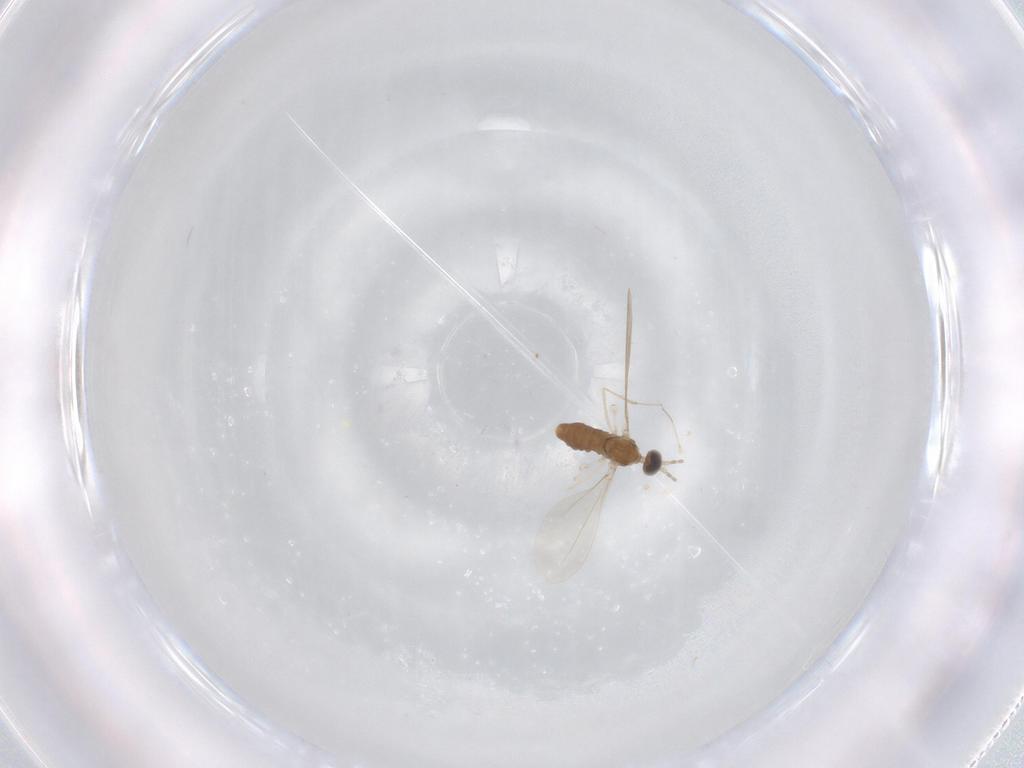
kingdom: Animalia
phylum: Arthropoda
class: Insecta
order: Diptera
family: Cecidomyiidae
